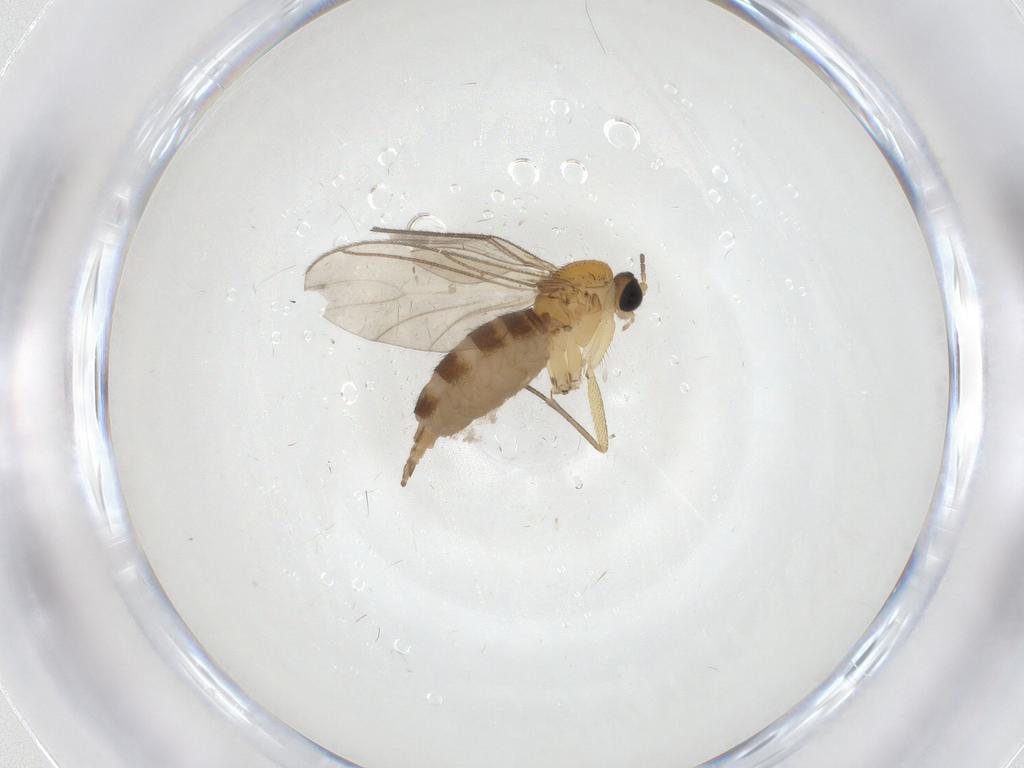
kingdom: Animalia
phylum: Arthropoda
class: Insecta
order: Diptera
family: Cecidomyiidae
